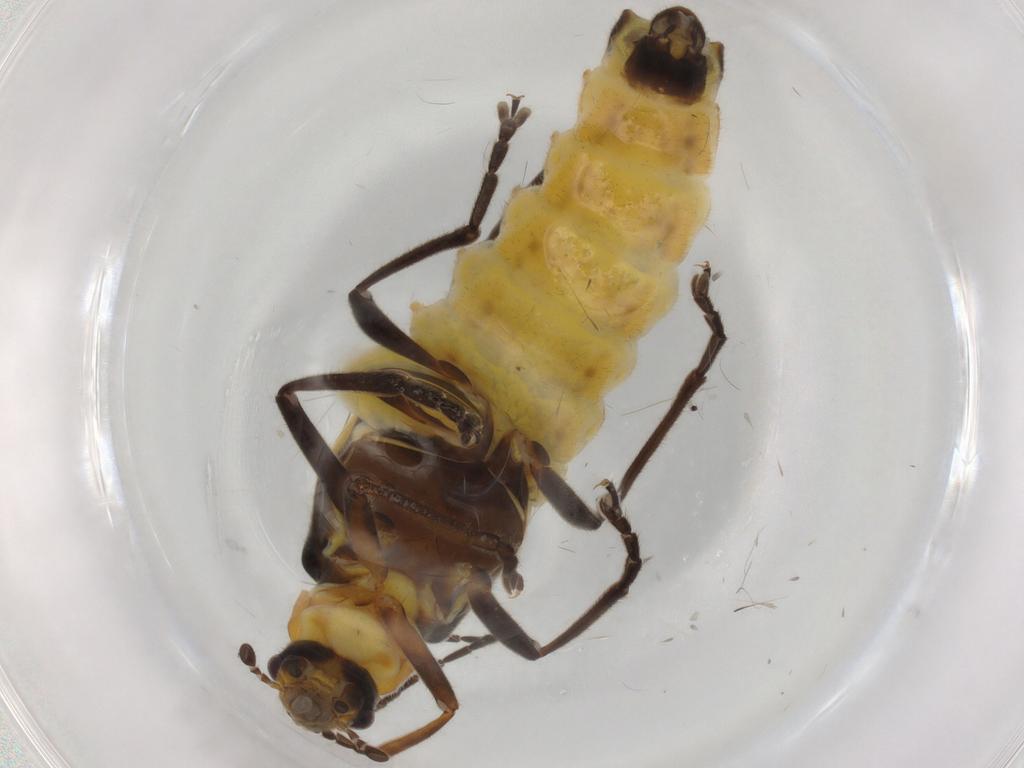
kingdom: Animalia
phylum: Arthropoda
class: Insecta
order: Coleoptera
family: Cantharidae
